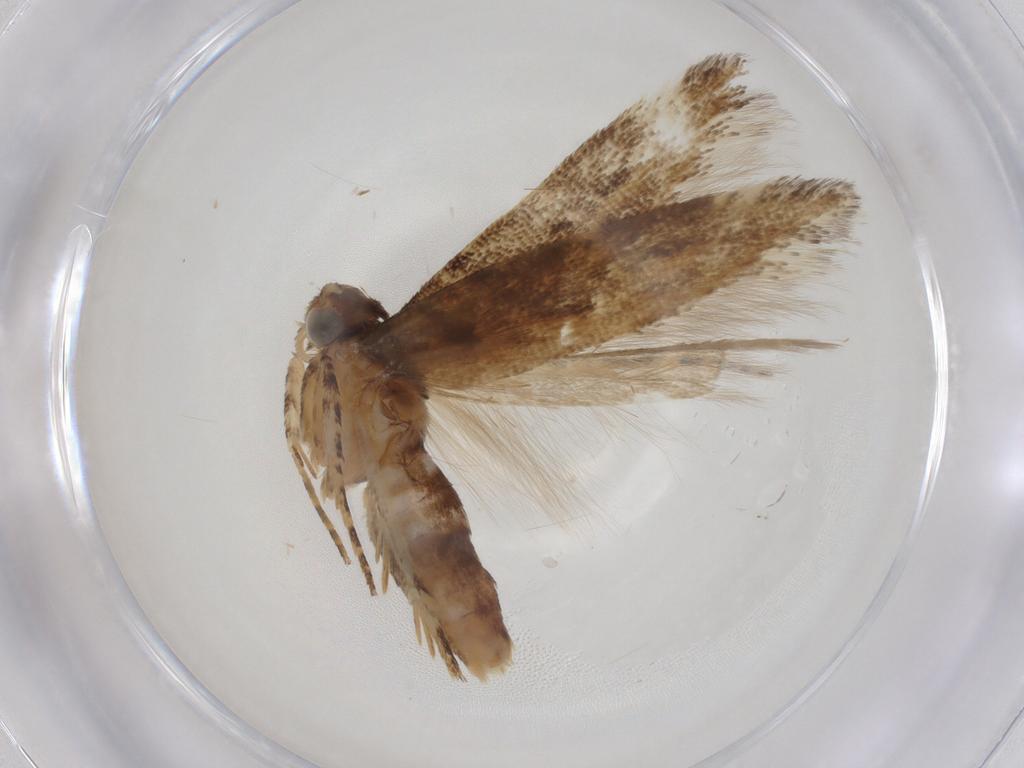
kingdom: Animalia
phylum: Arthropoda
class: Insecta
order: Lepidoptera
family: Gelechiidae
